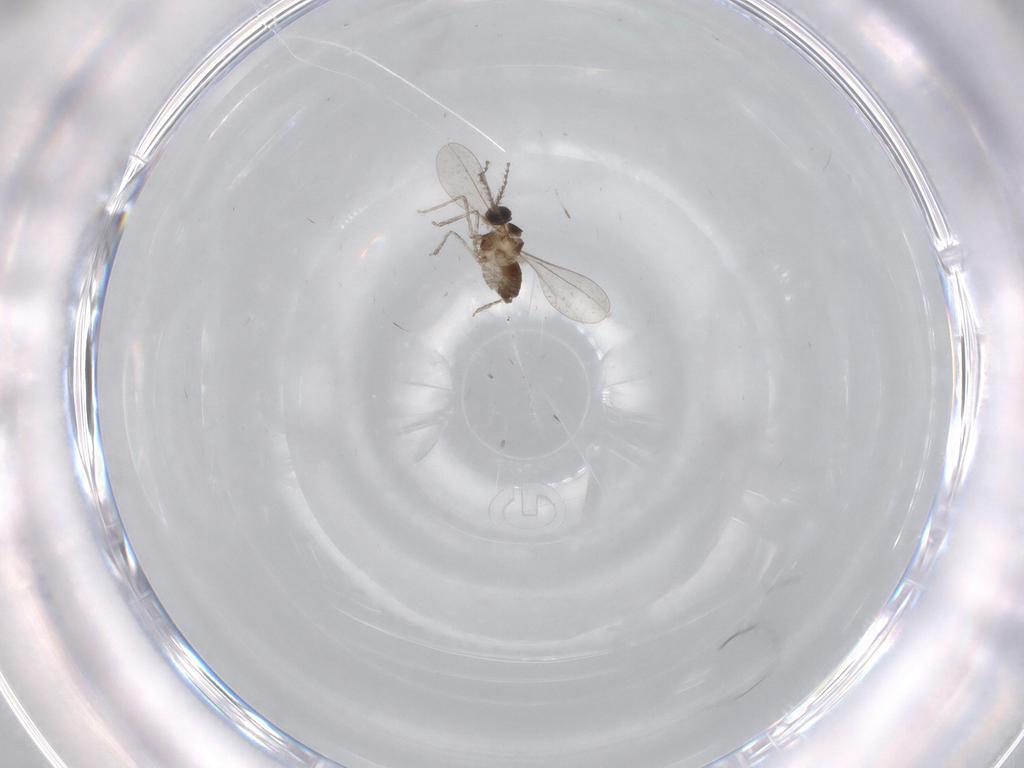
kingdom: Animalia
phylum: Arthropoda
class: Insecta
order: Diptera
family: Cecidomyiidae
